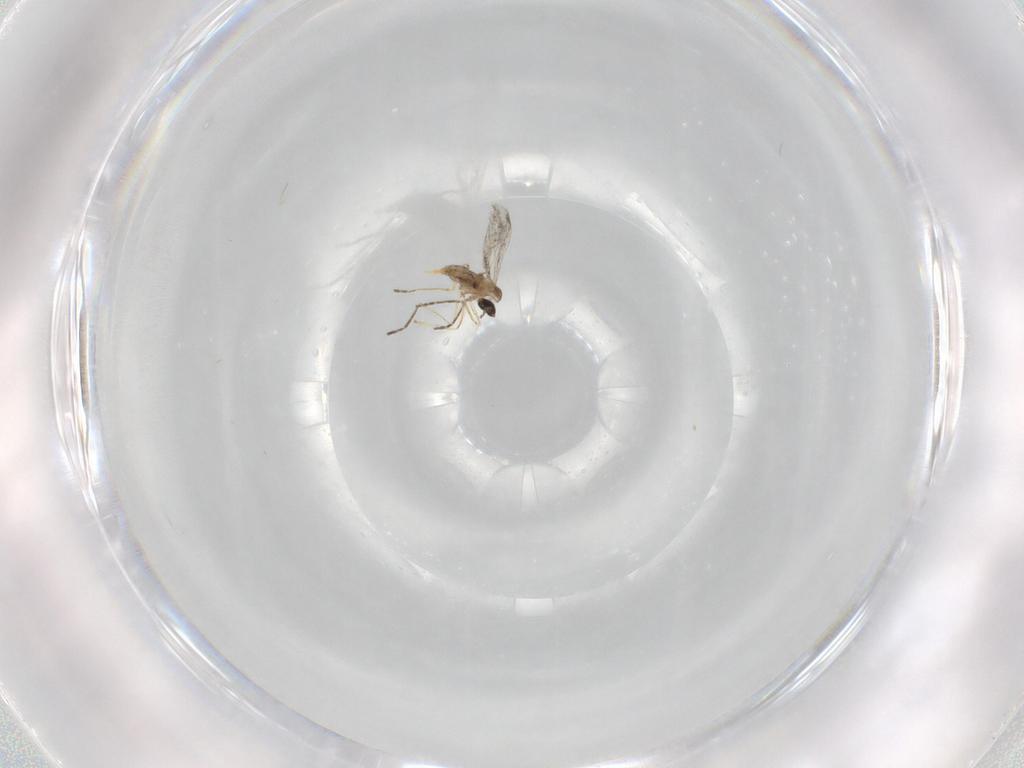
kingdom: Animalia
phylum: Arthropoda
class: Insecta
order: Diptera
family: Cecidomyiidae
